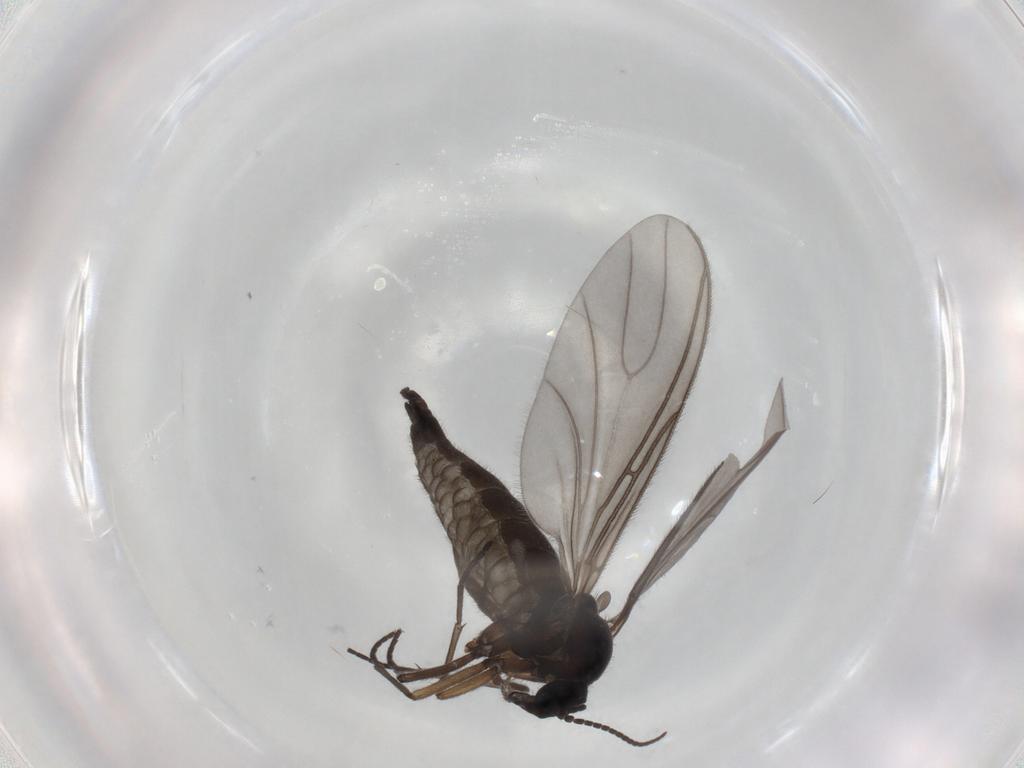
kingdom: Animalia
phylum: Arthropoda
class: Insecta
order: Diptera
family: Sciaridae
